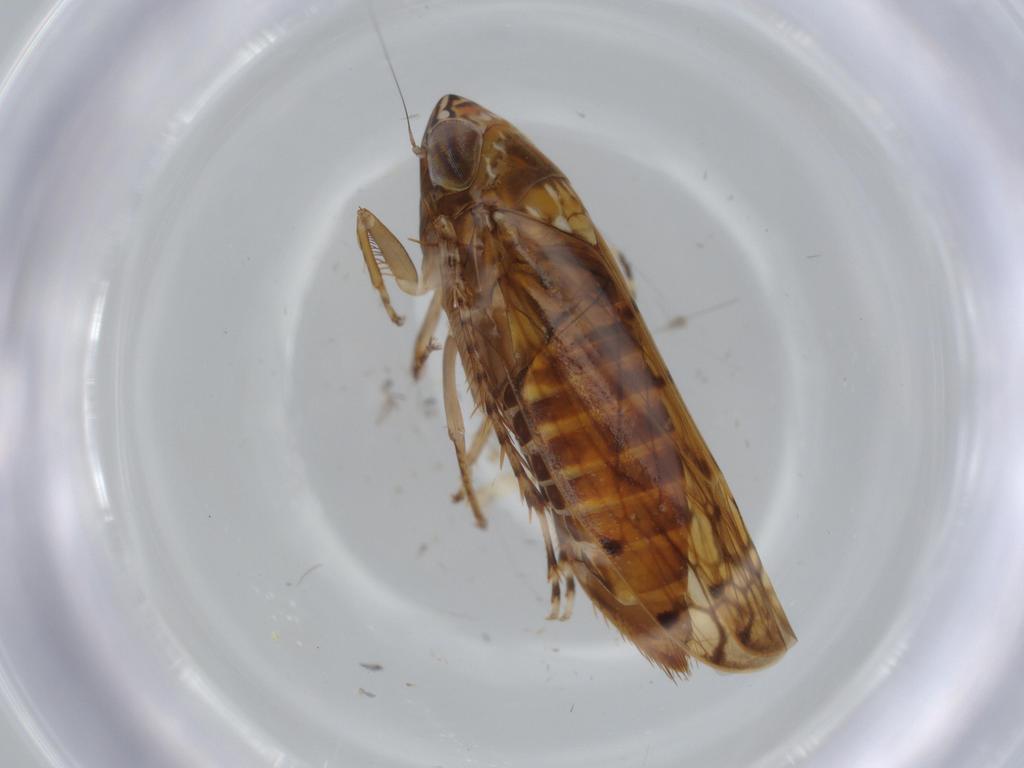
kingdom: Animalia
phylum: Arthropoda
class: Insecta
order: Hemiptera
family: Cicadellidae
